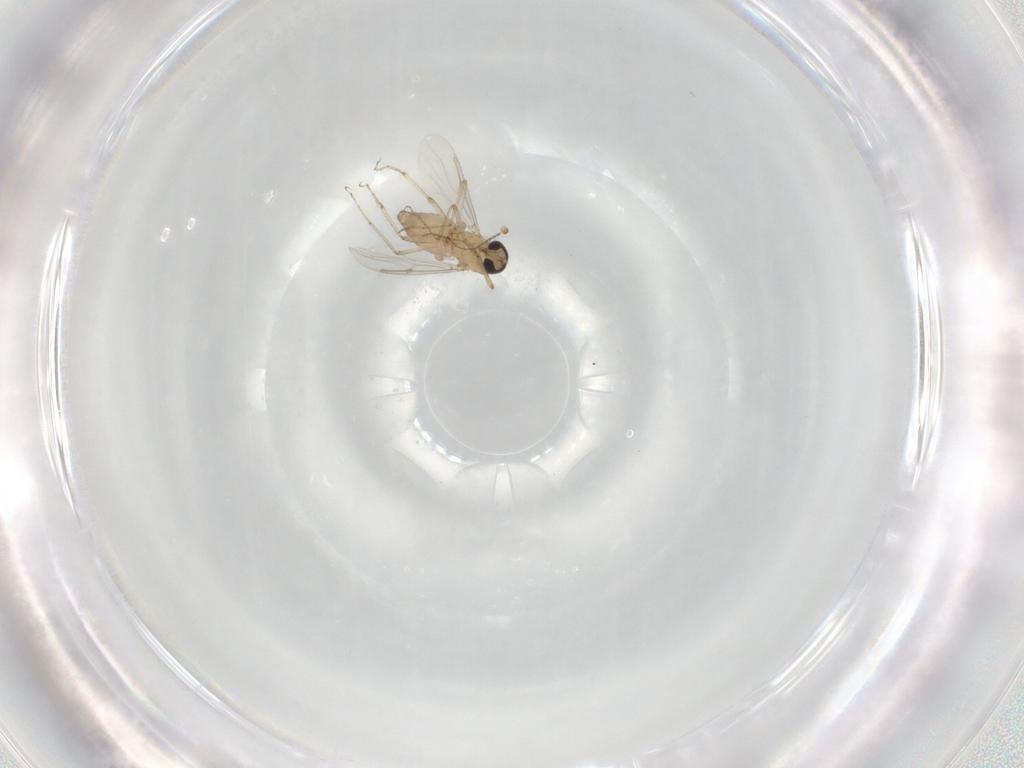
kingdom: Animalia
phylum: Arthropoda
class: Insecta
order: Diptera
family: Chironomidae
